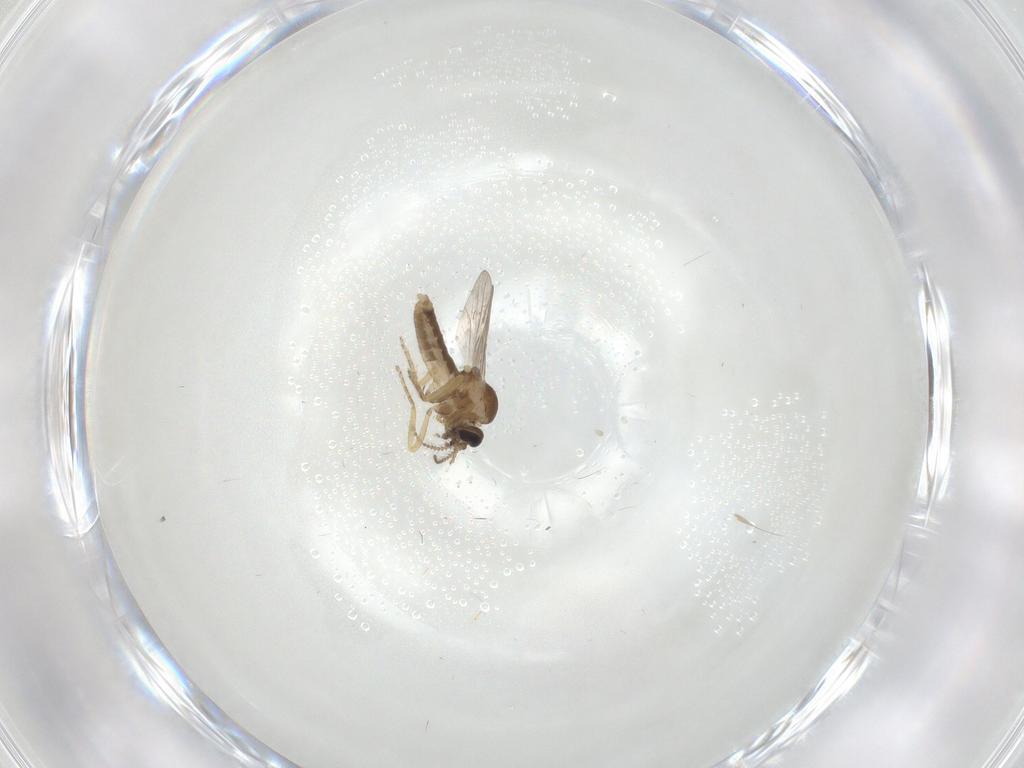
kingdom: Animalia
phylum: Arthropoda
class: Insecta
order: Diptera
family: Ceratopogonidae
